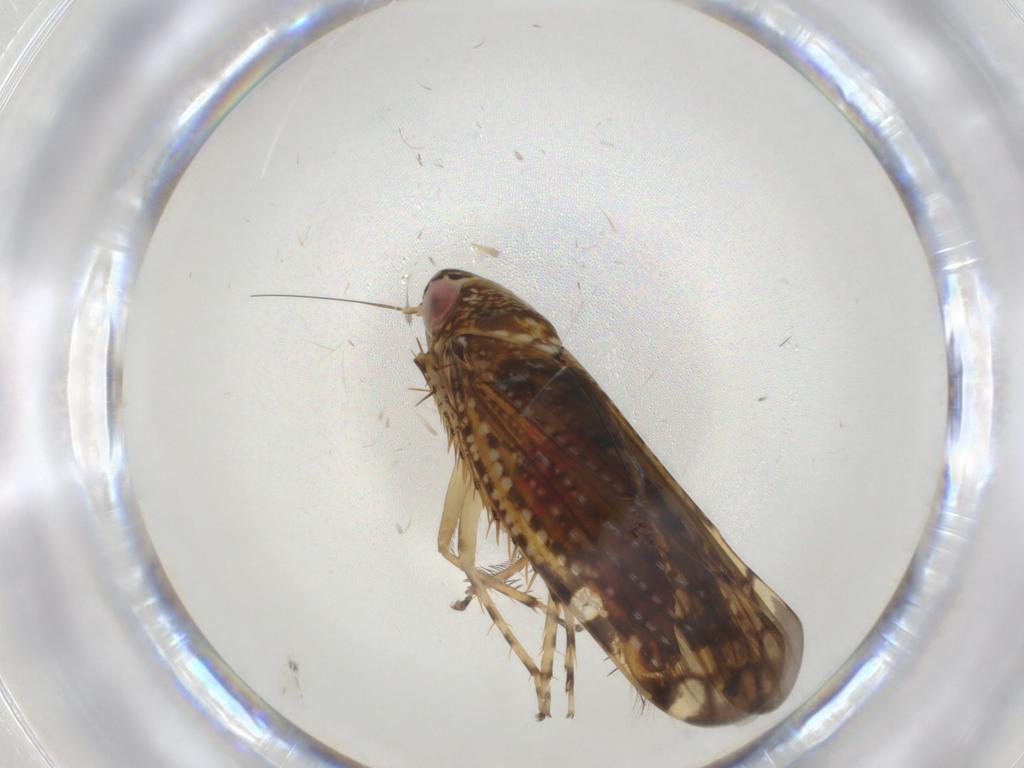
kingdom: Animalia
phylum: Arthropoda
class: Insecta
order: Hemiptera
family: Cicadellidae
